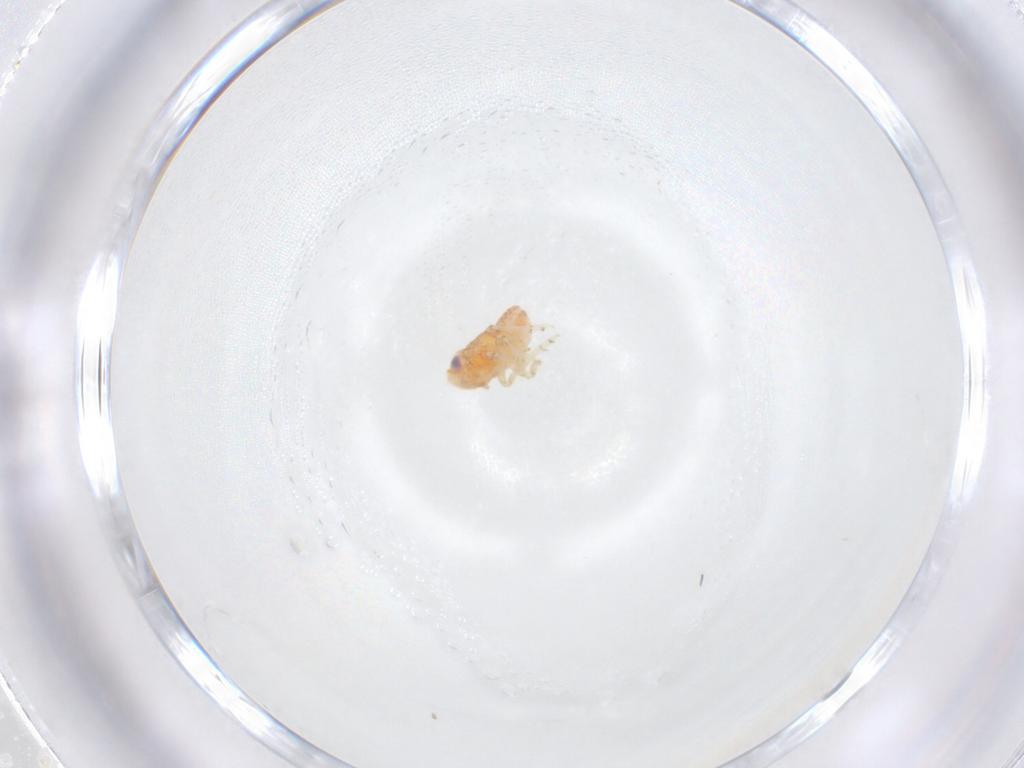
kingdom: Animalia
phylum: Arthropoda
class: Insecta
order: Hemiptera
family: Issidae
